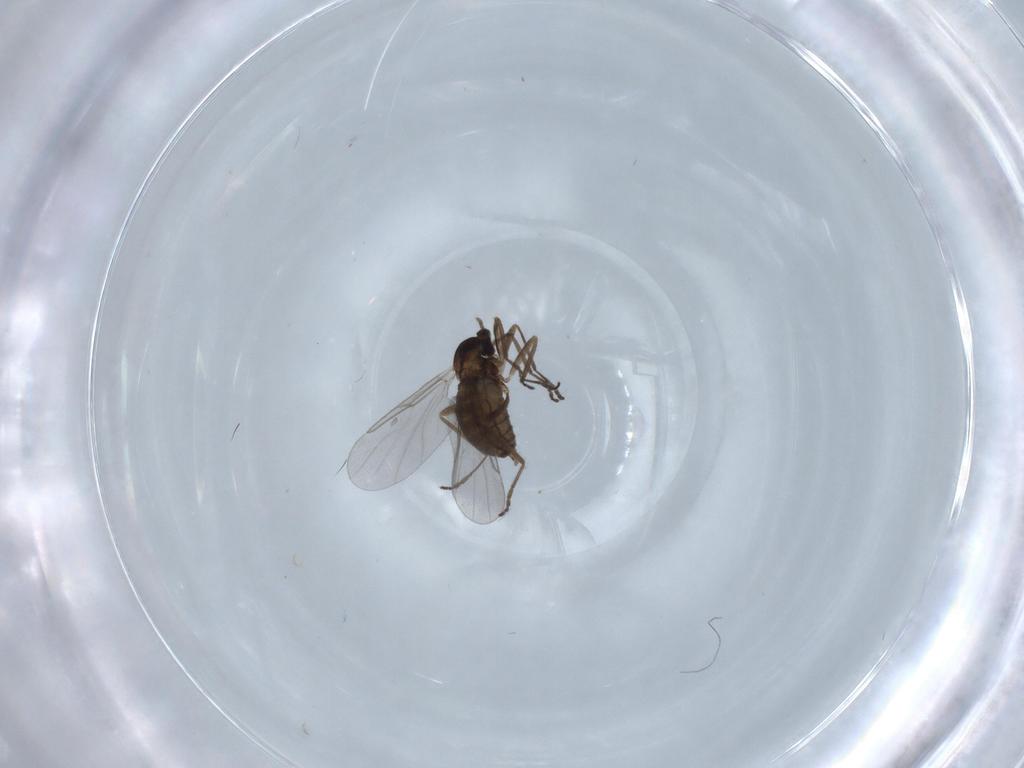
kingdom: Animalia
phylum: Arthropoda
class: Insecta
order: Diptera
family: Cecidomyiidae
